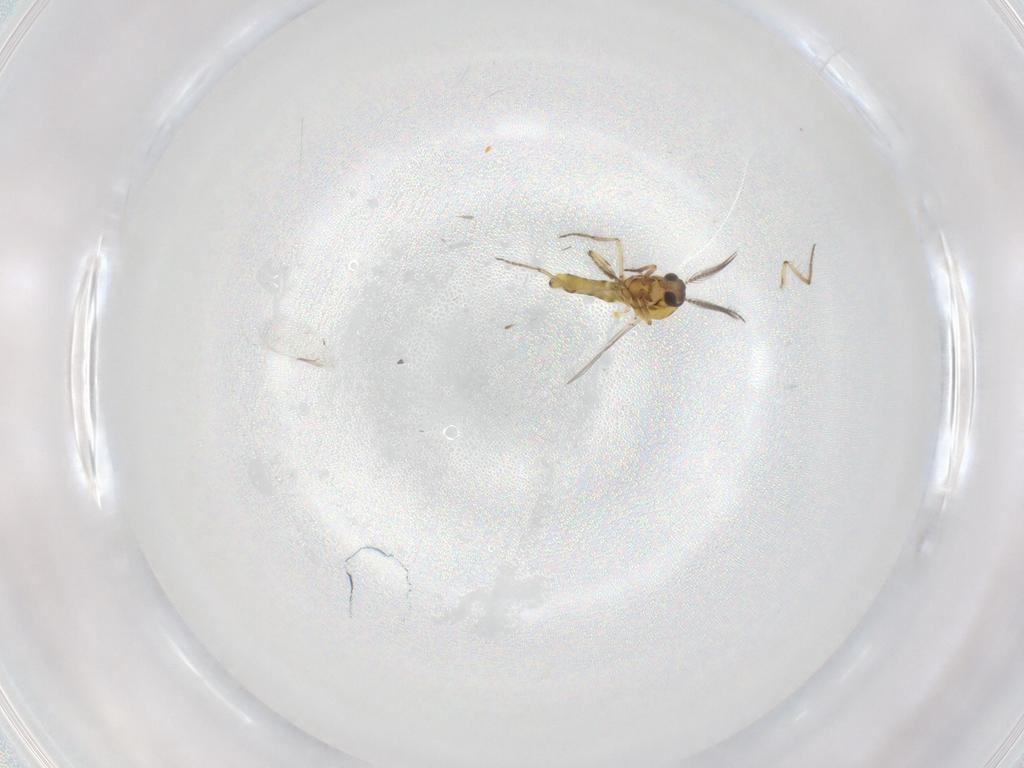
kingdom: Animalia
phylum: Arthropoda
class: Insecta
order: Diptera
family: Ceratopogonidae
